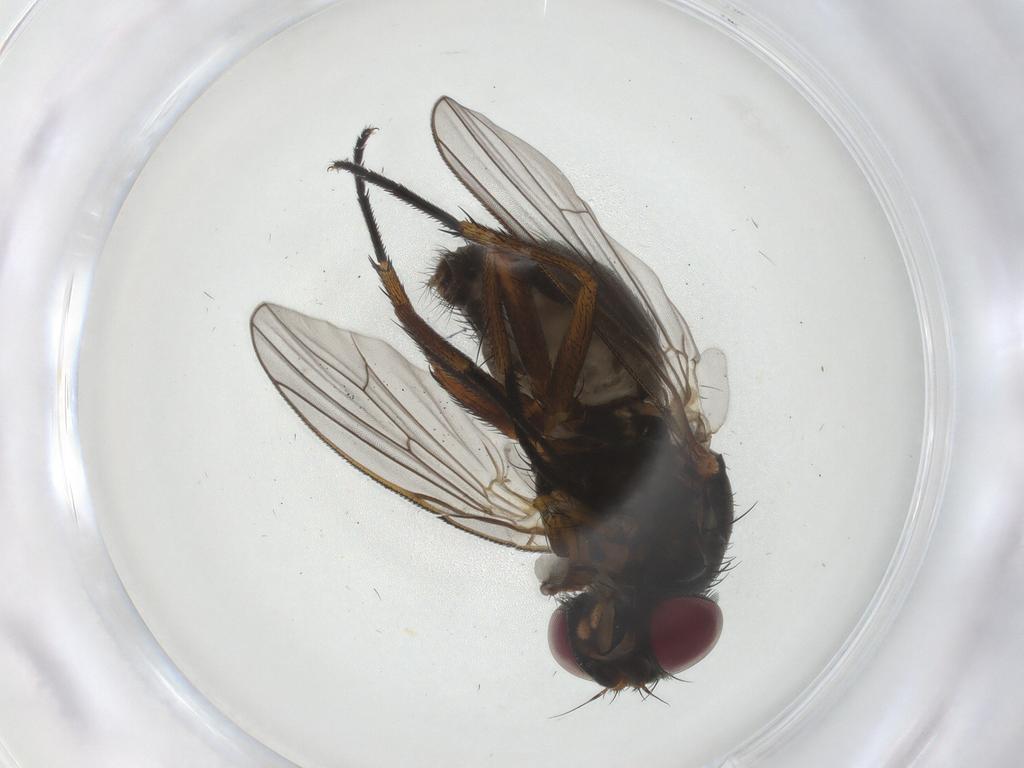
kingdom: Animalia
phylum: Arthropoda
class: Insecta
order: Diptera
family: Fannia
